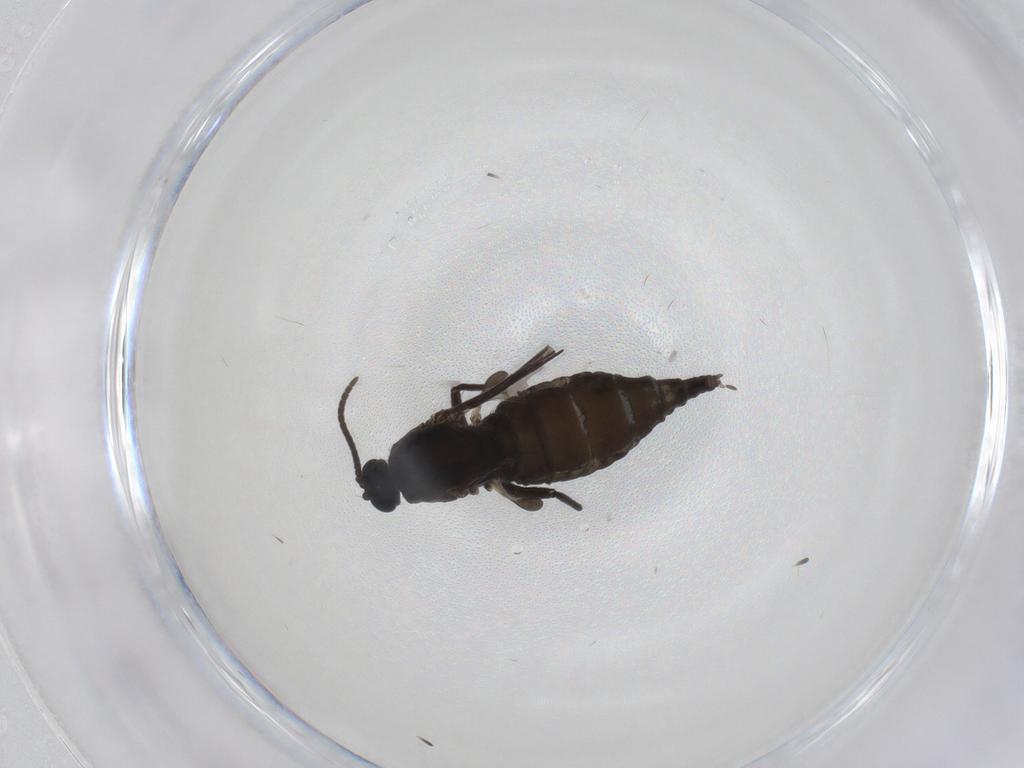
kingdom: Animalia
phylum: Arthropoda
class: Insecta
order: Diptera
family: Sciaridae
